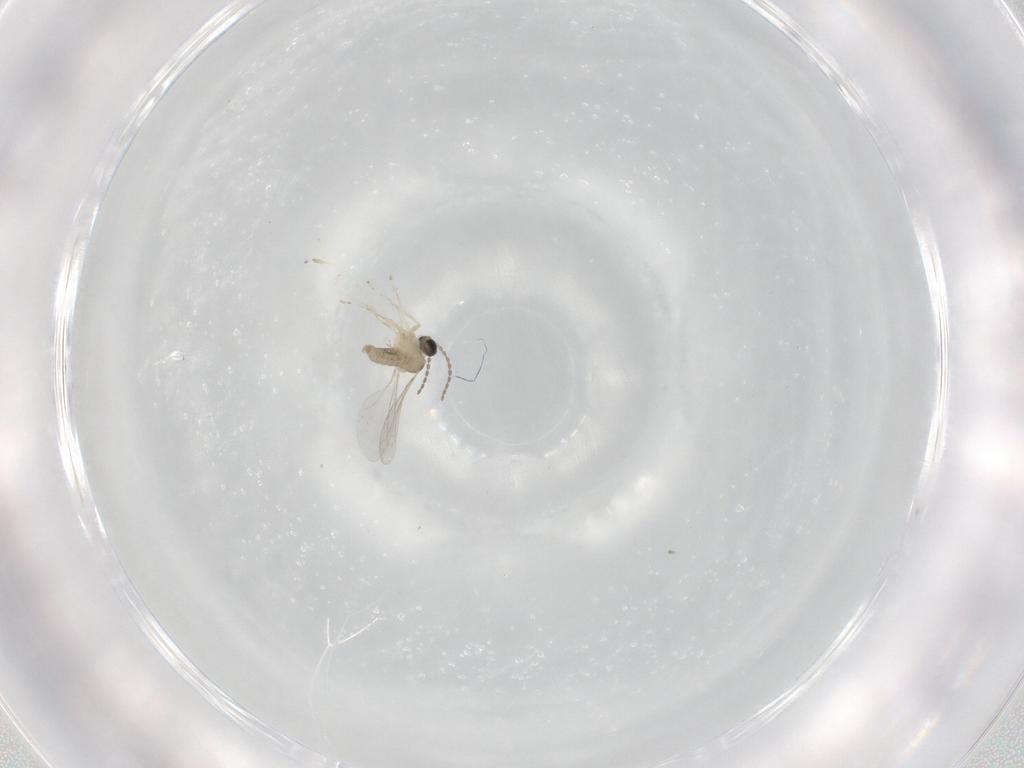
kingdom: Animalia
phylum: Arthropoda
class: Insecta
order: Diptera
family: Cecidomyiidae
